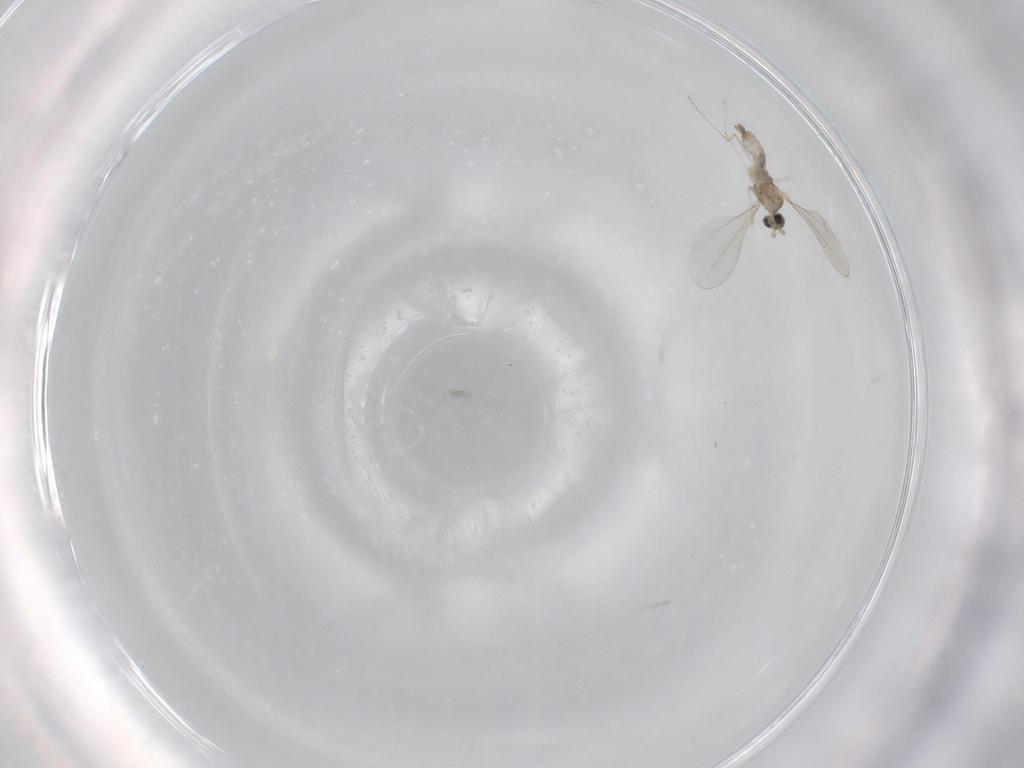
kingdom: Animalia
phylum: Arthropoda
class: Insecta
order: Diptera
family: Cecidomyiidae
